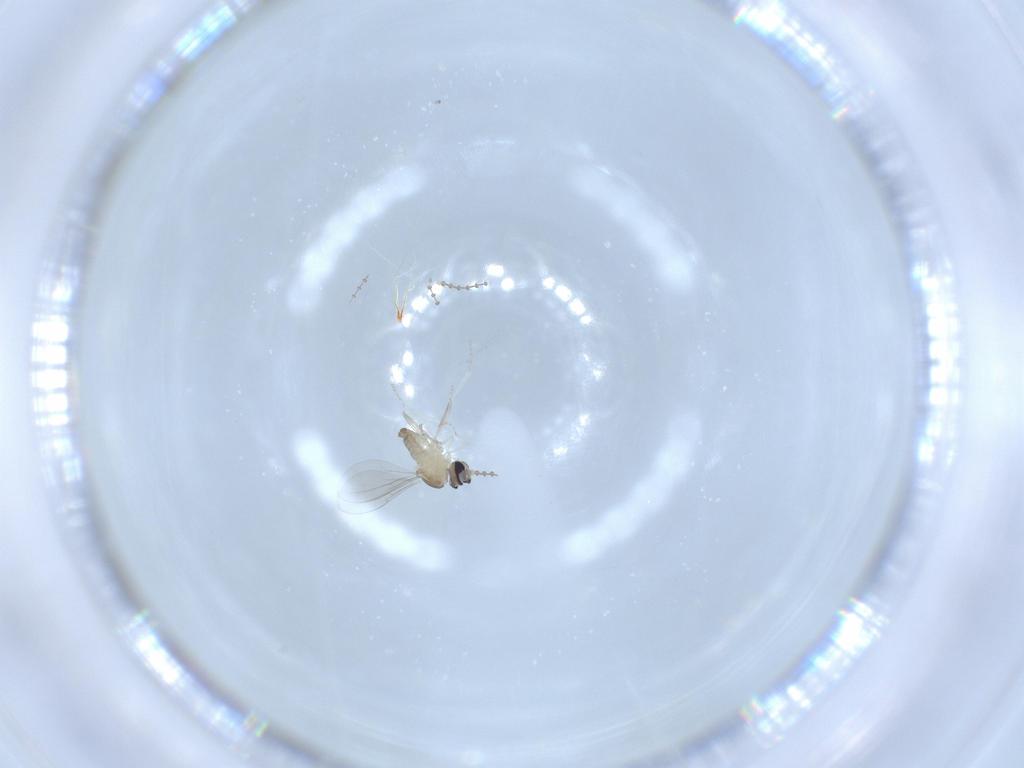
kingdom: Animalia
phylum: Arthropoda
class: Insecta
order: Diptera
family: Cecidomyiidae
